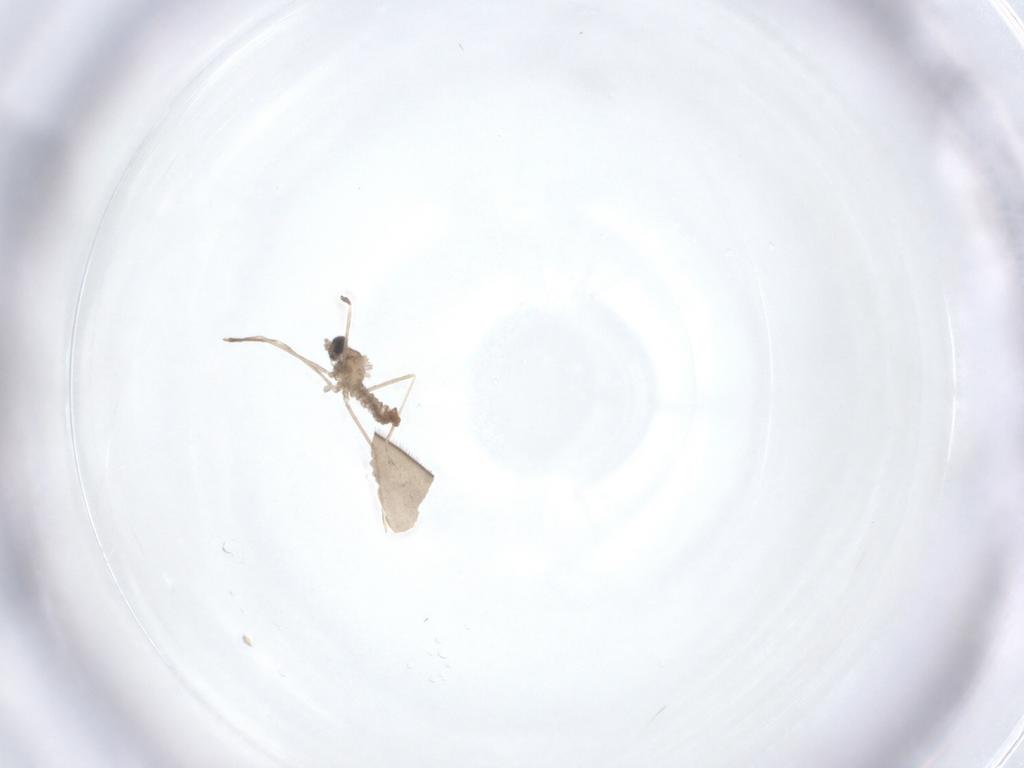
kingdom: Animalia
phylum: Arthropoda
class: Insecta
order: Diptera
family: Cecidomyiidae
